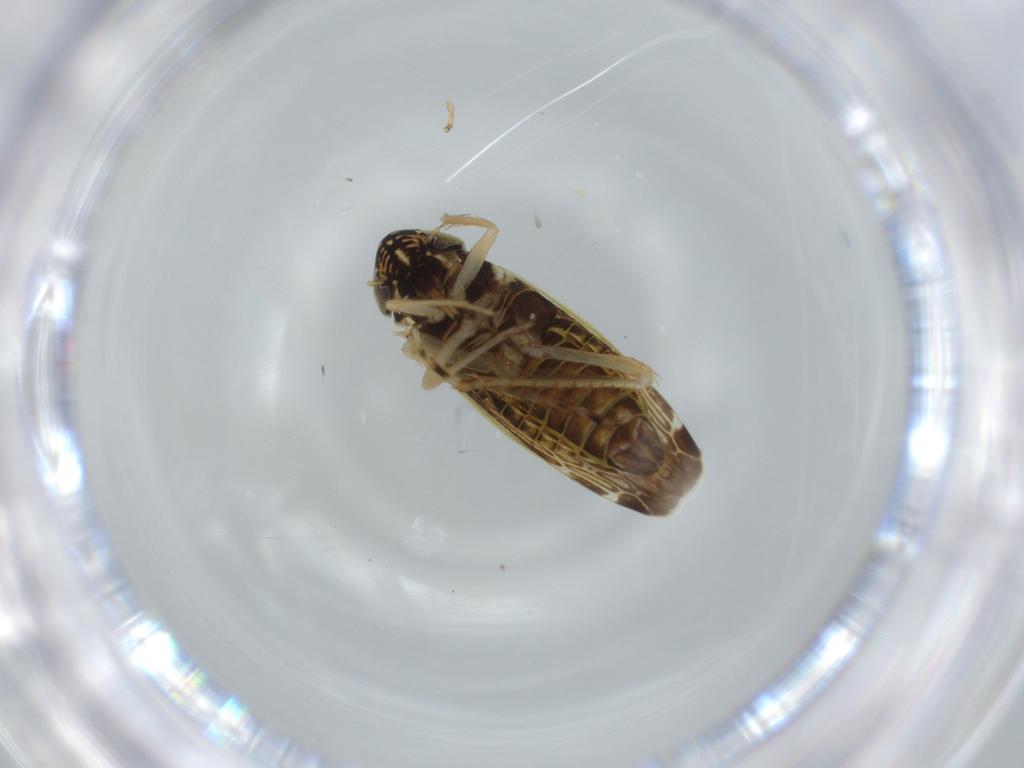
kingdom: Animalia
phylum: Arthropoda
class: Insecta
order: Hemiptera
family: Cicadellidae
